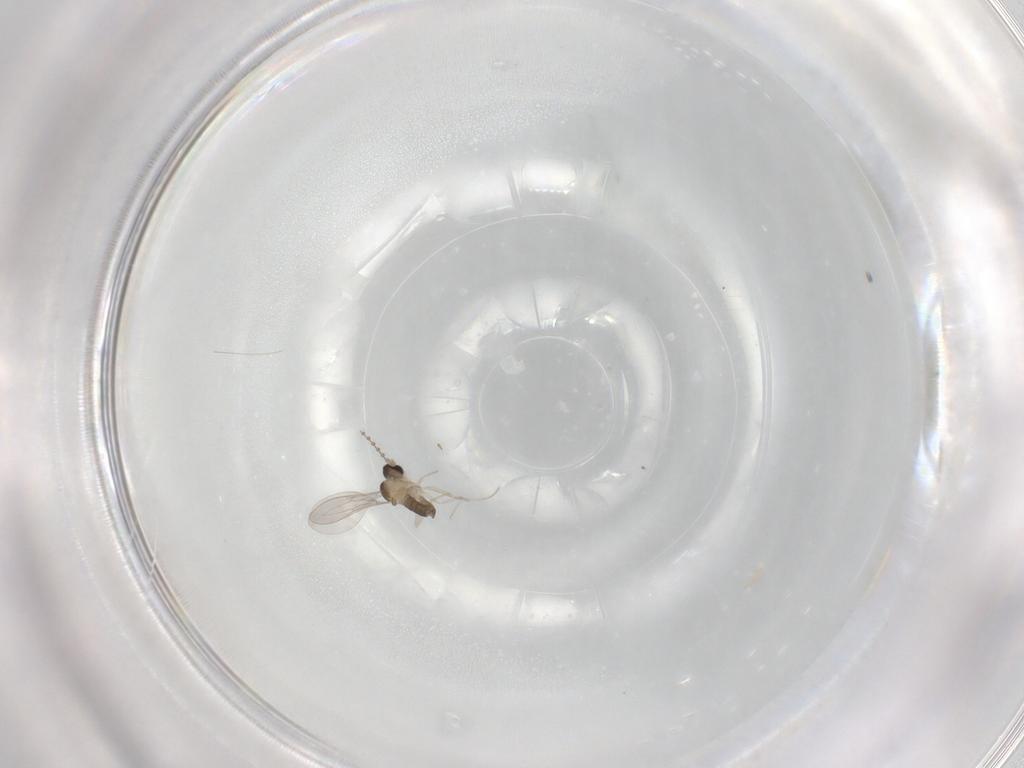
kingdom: Animalia
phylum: Arthropoda
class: Insecta
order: Diptera
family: Cecidomyiidae
